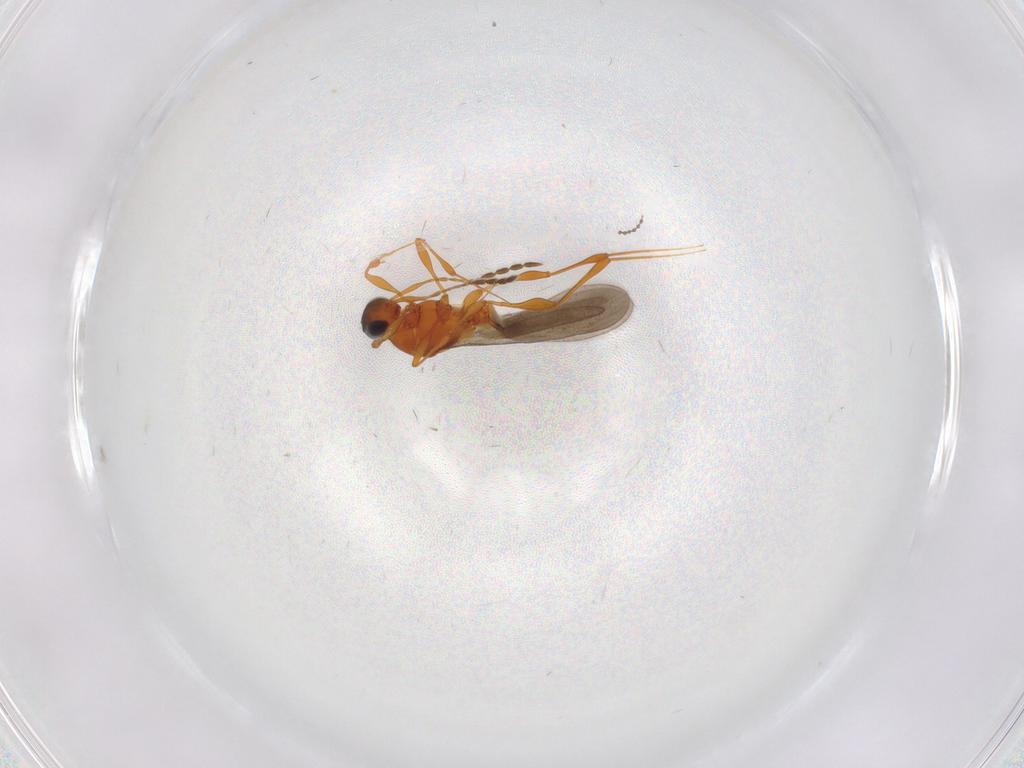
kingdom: Animalia
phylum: Arthropoda
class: Insecta
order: Hymenoptera
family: Platygastridae
